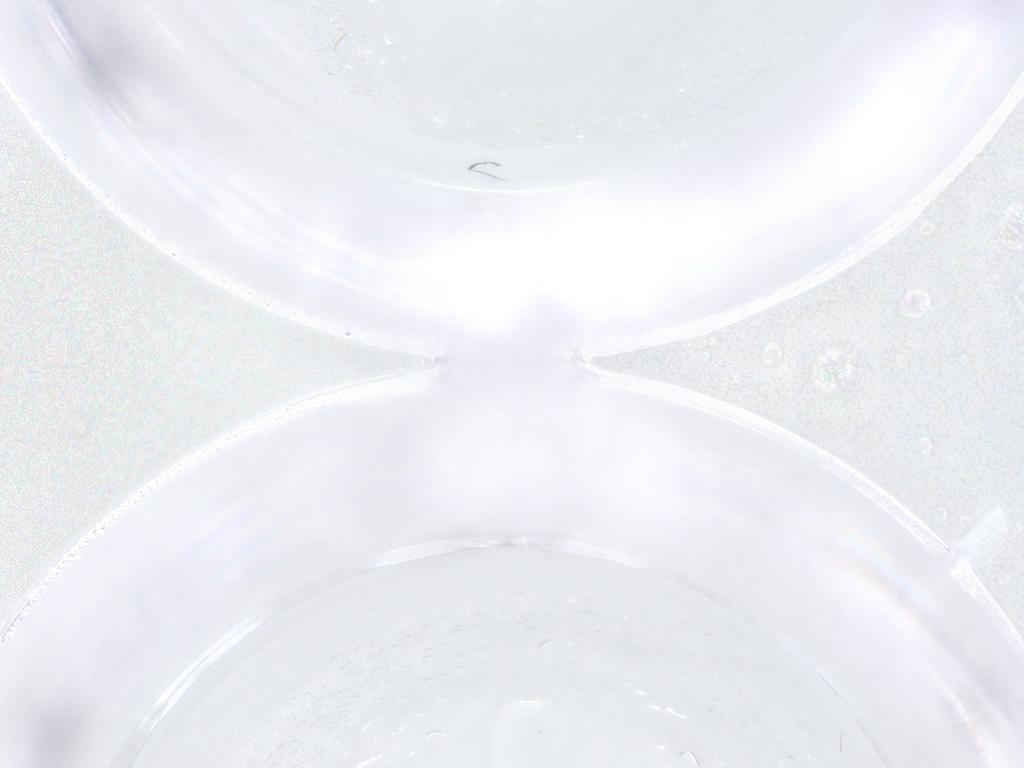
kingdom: Animalia
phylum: Arthropoda
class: Insecta
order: Diptera
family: Cecidomyiidae
